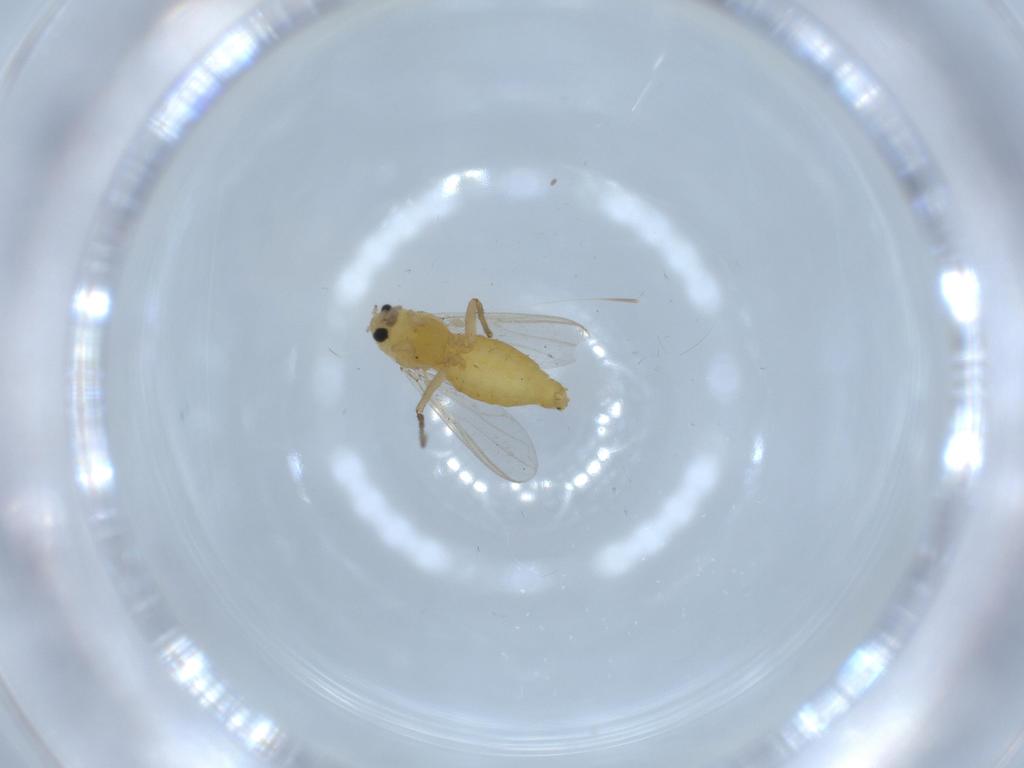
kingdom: Animalia
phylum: Arthropoda
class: Insecta
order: Diptera
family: Chironomidae
